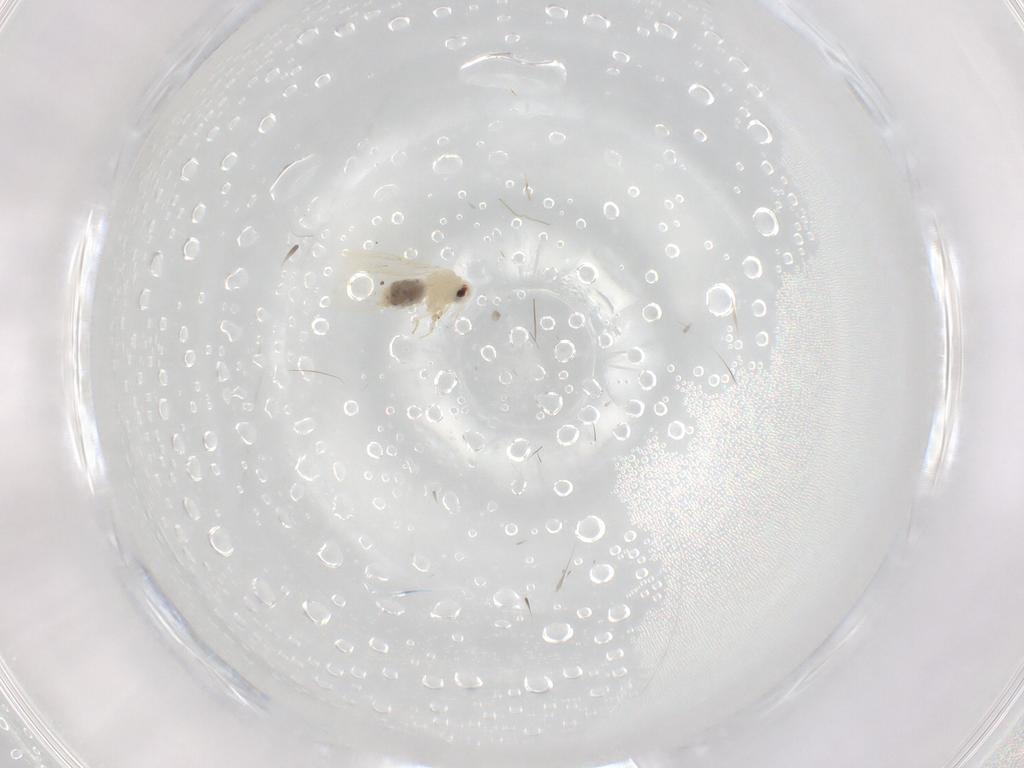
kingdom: Animalia
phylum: Arthropoda
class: Insecta
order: Hemiptera
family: Aleyrodidae
